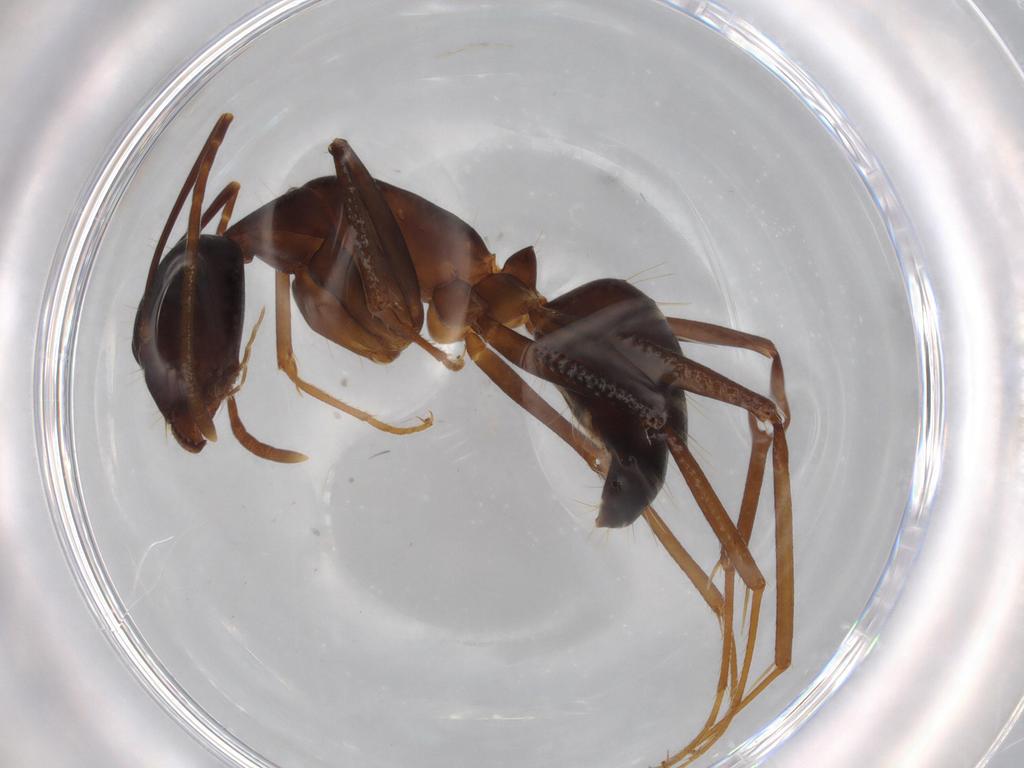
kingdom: Animalia
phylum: Arthropoda
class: Insecta
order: Hymenoptera
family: Formicidae
